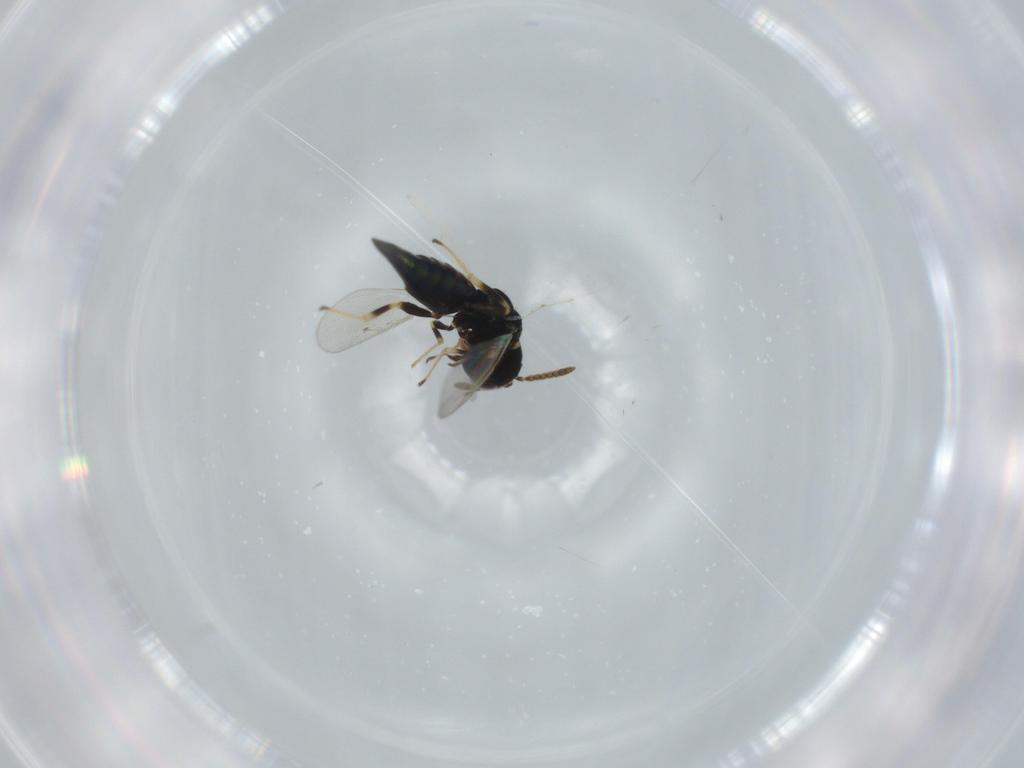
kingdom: Animalia
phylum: Arthropoda
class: Insecta
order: Hymenoptera
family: Pteromalidae
